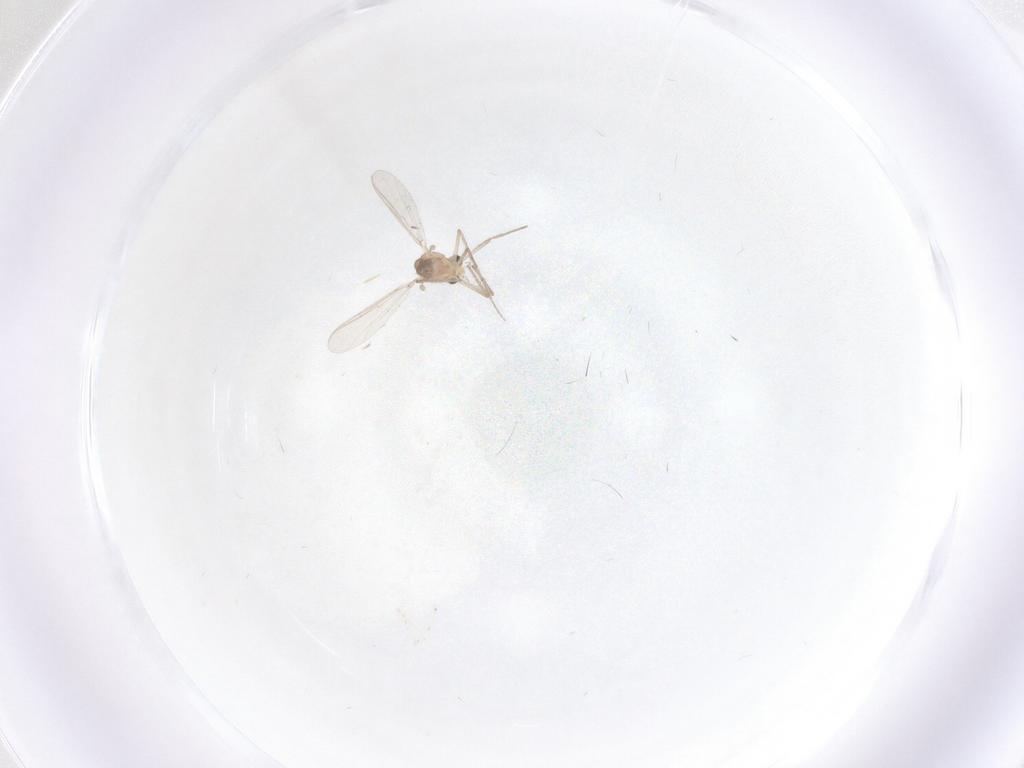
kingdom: Animalia
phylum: Arthropoda
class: Insecta
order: Diptera
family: Chironomidae
